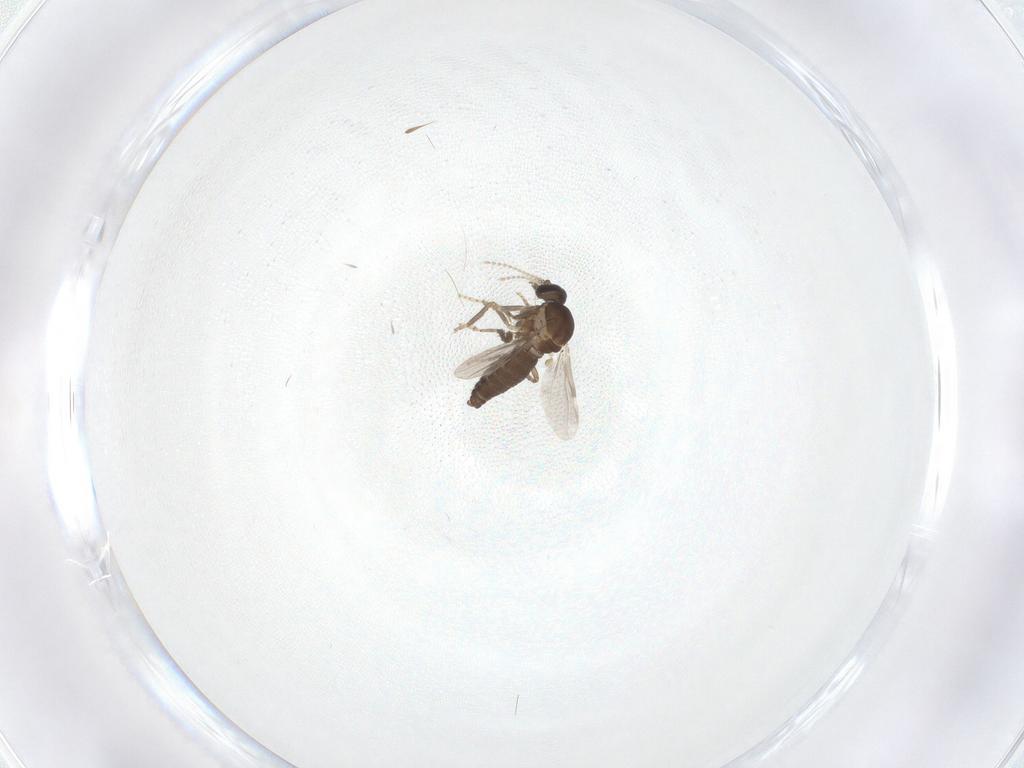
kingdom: Animalia
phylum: Arthropoda
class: Insecta
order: Diptera
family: Ceratopogonidae
